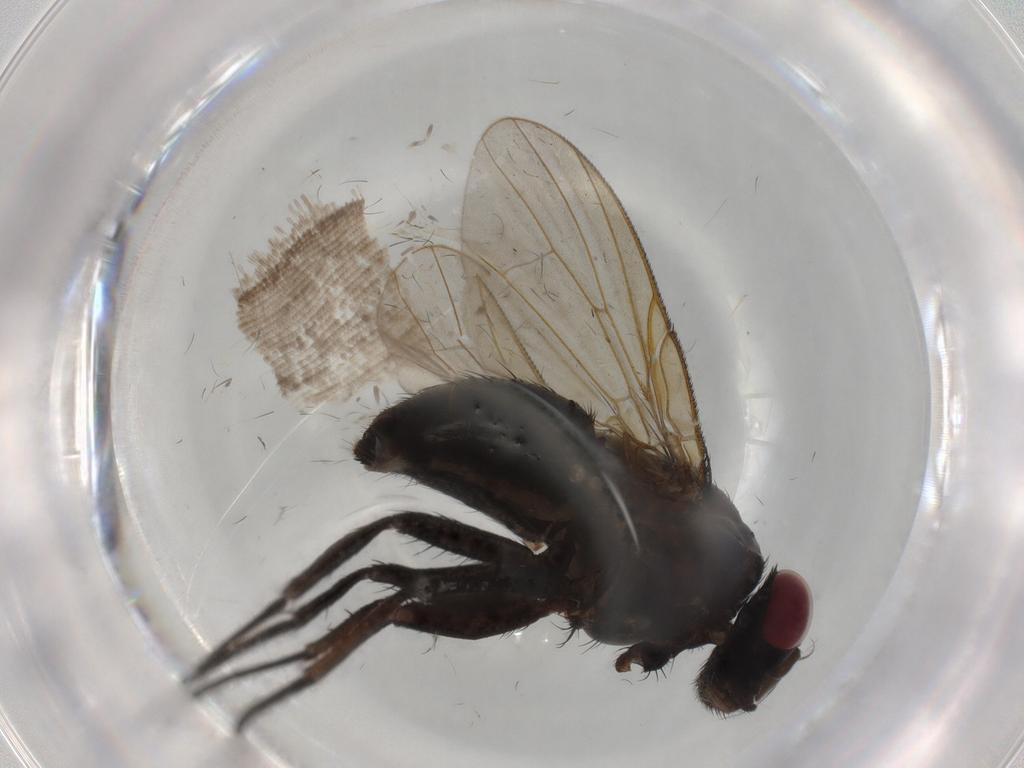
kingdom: Animalia
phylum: Arthropoda
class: Insecta
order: Diptera
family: Muscidae
